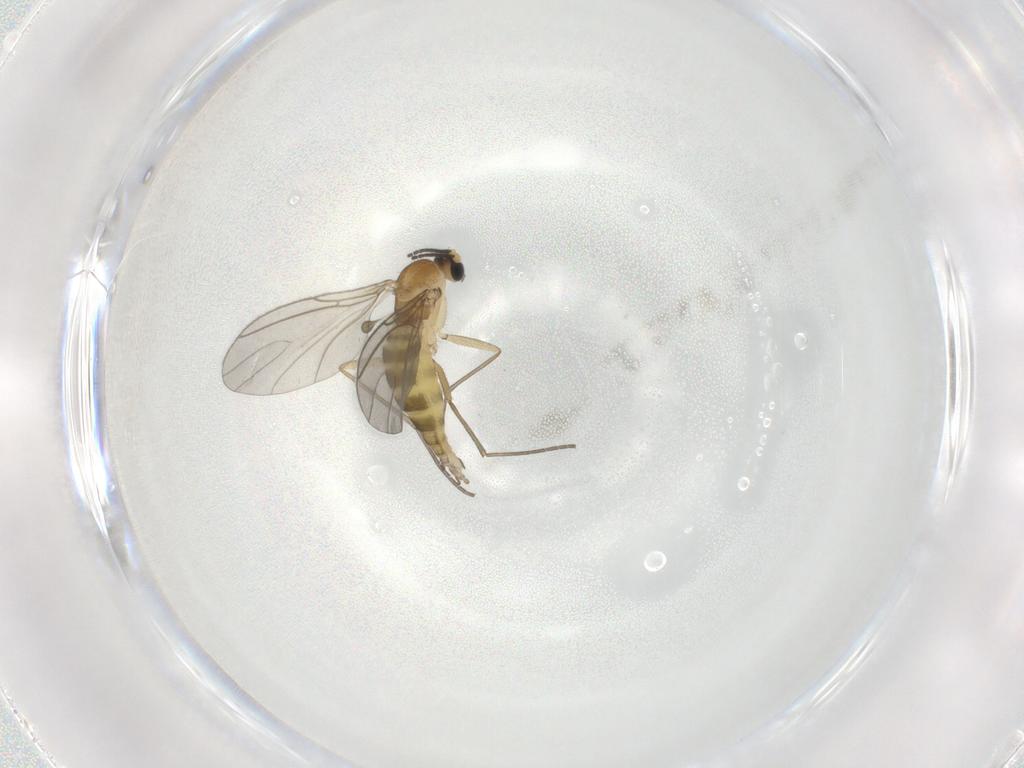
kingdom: Animalia
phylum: Arthropoda
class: Insecta
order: Diptera
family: Sciaridae
